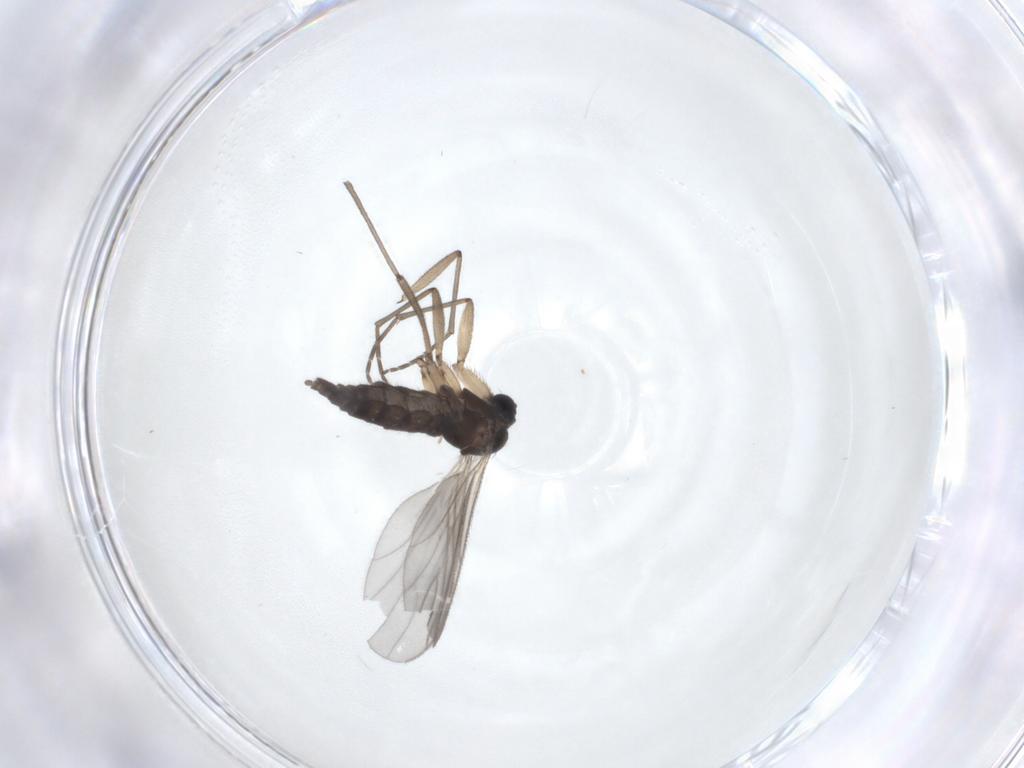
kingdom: Animalia
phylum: Arthropoda
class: Insecta
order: Diptera
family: Sciaridae
